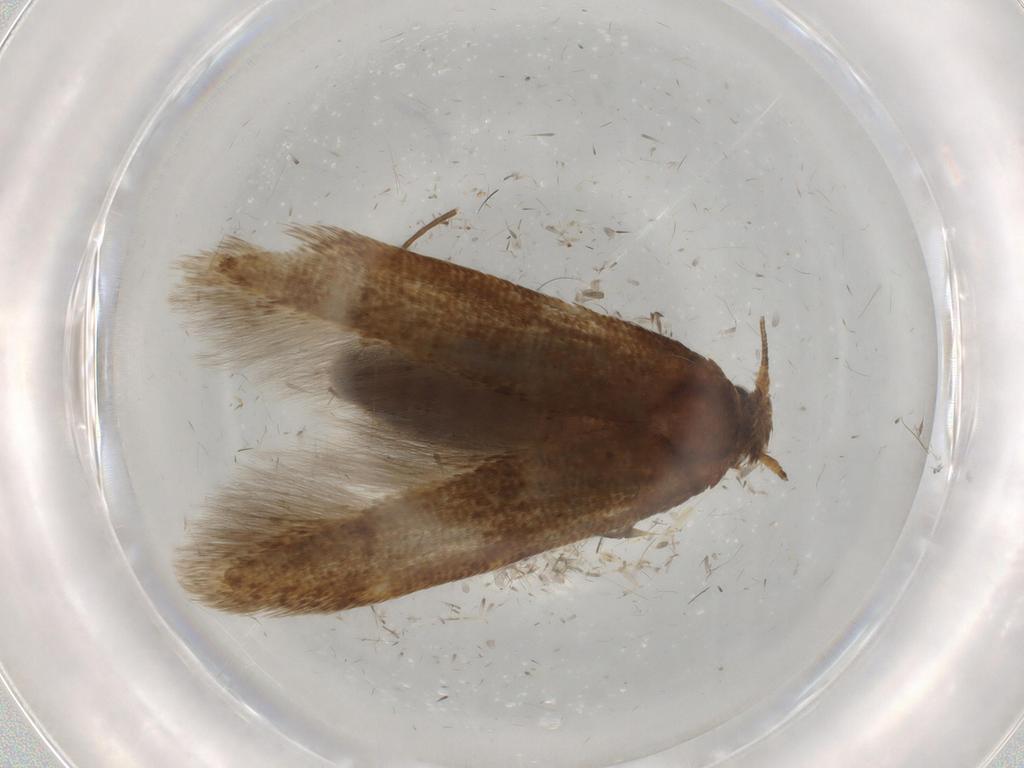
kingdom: Animalia
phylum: Arthropoda
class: Insecta
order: Lepidoptera
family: Coleophoridae
